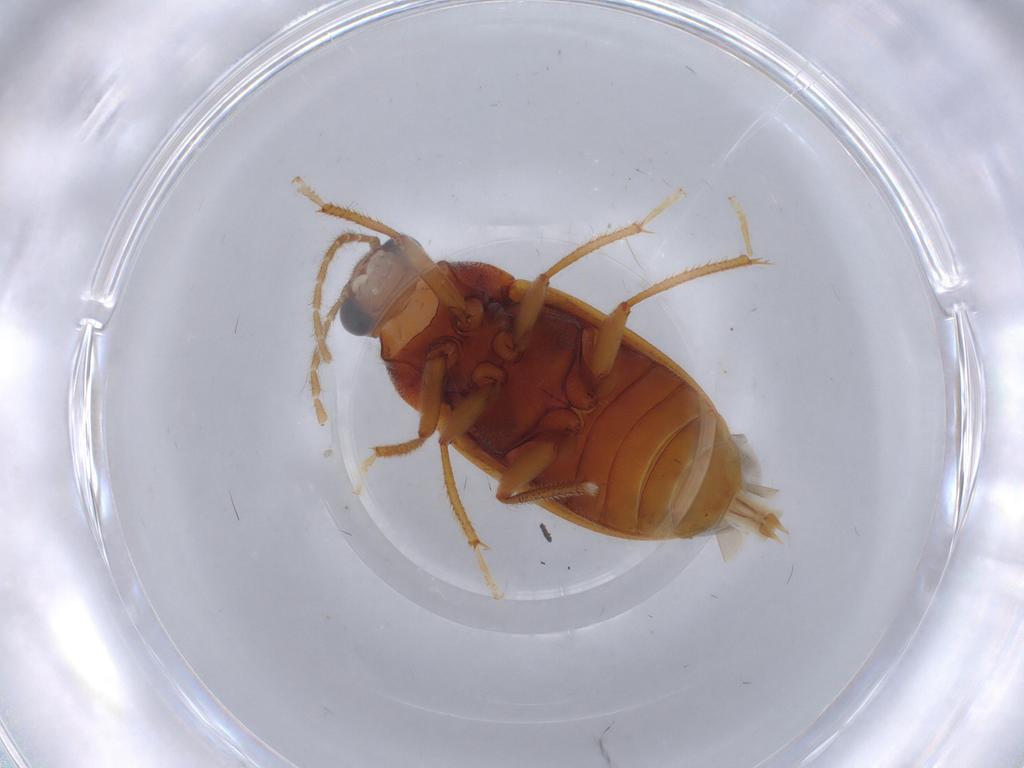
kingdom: Animalia
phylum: Arthropoda
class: Insecta
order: Coleoptera
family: Ptilodactylidae
